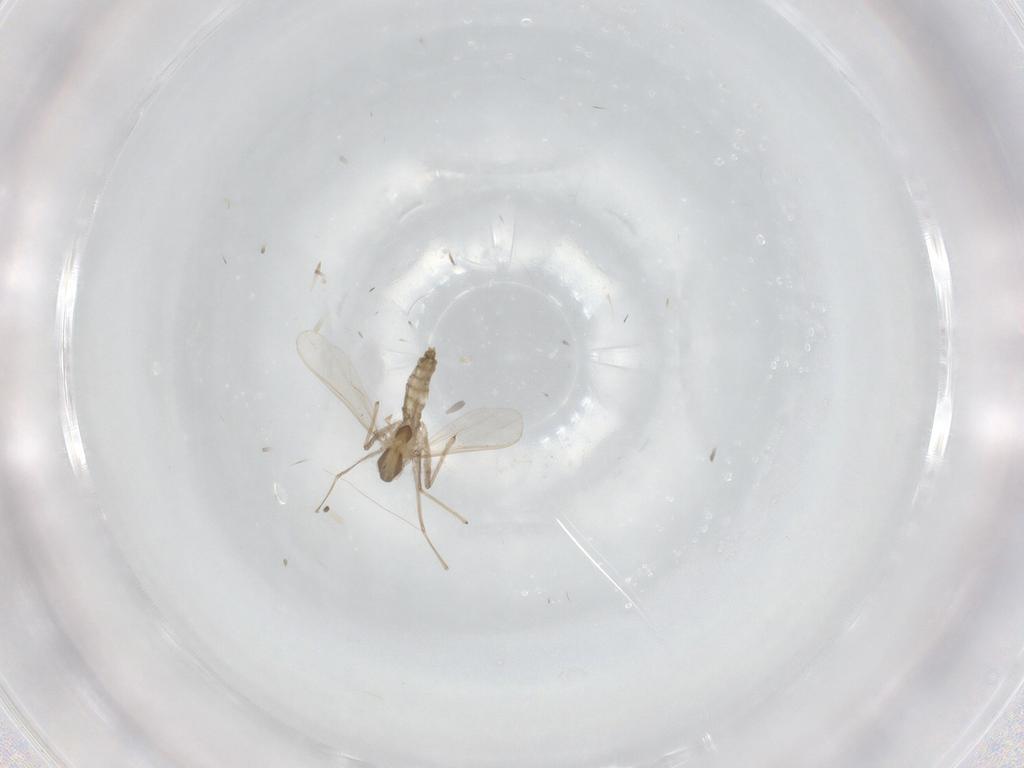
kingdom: Animalia
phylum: Arthropoda
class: Insecta
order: Diptera
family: Chironomidae
